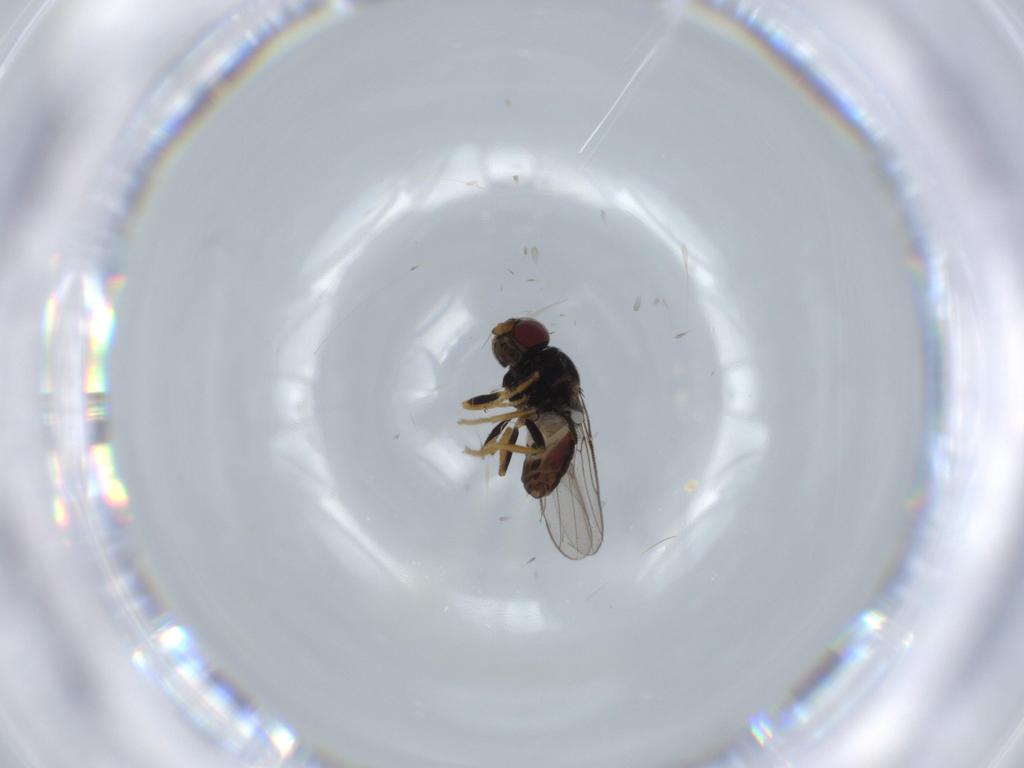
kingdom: Animalia
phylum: Arthropoda
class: Insecta
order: Diptera
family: Chloropidae
